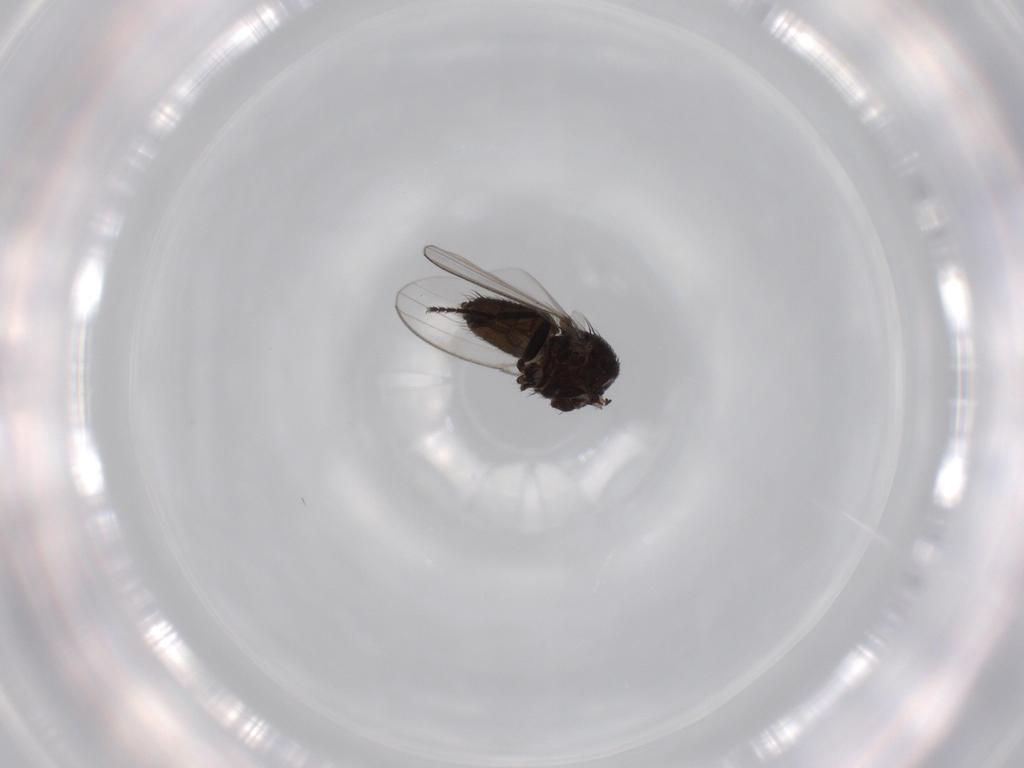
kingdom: Animalia
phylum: Arthropoda
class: Insecta
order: Diptera
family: Milichiidae
